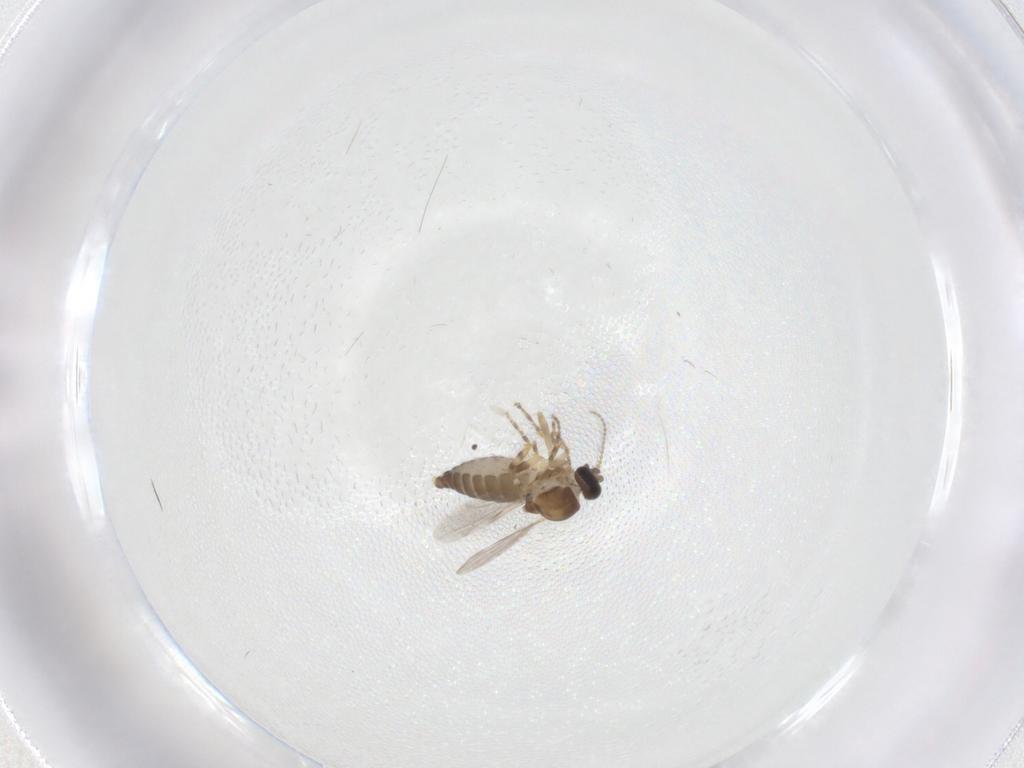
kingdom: Animalia
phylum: Arthropoda
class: Insecta
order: Diptera
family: Ceratopogonidae
